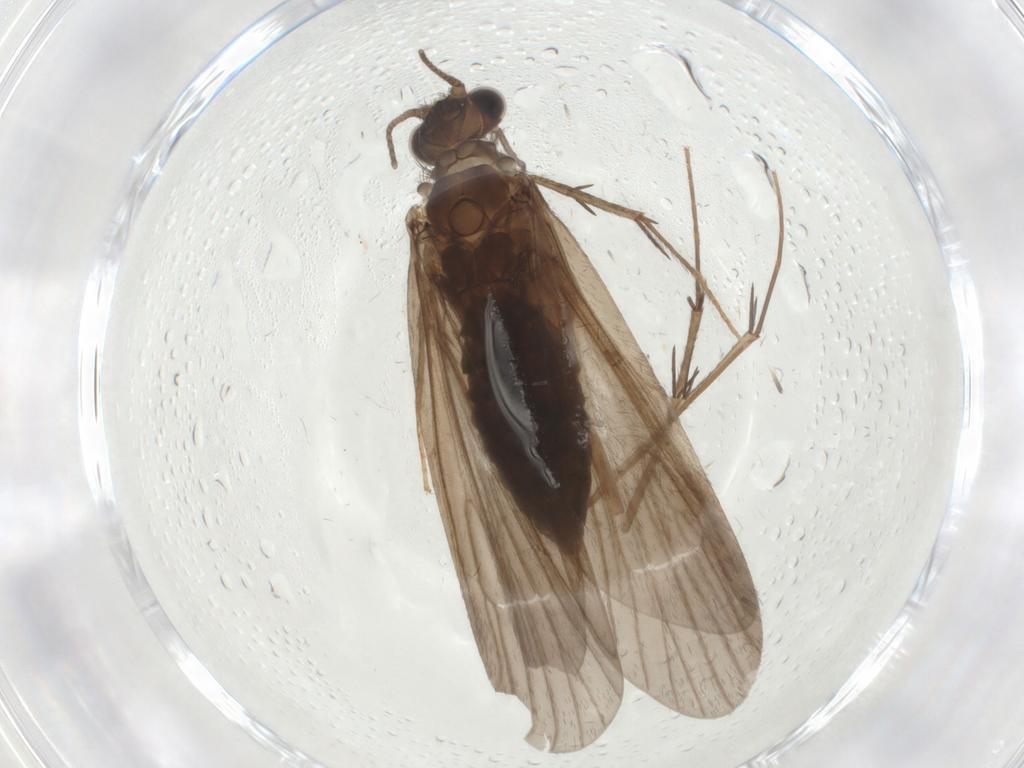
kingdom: Animalia
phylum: Arthropoda
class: Insecta
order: Trichoptera
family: Philopotamidae
